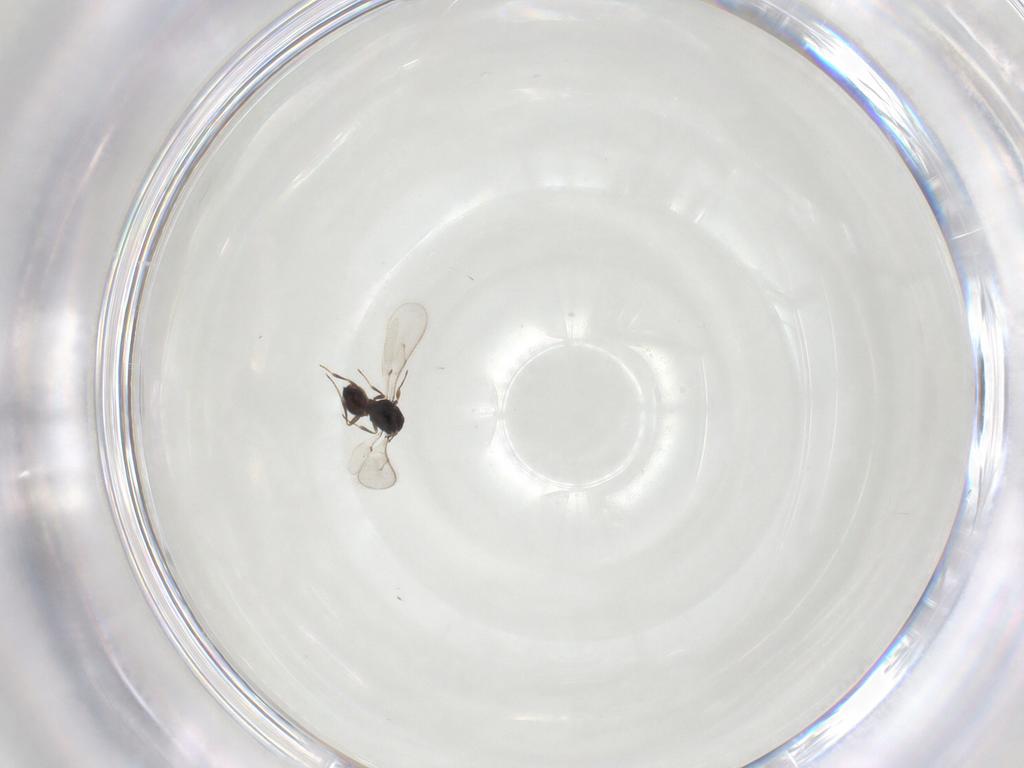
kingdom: Animalia
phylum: Arthropoda
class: Insecta
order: Hymenoptera
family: Scelionidae
